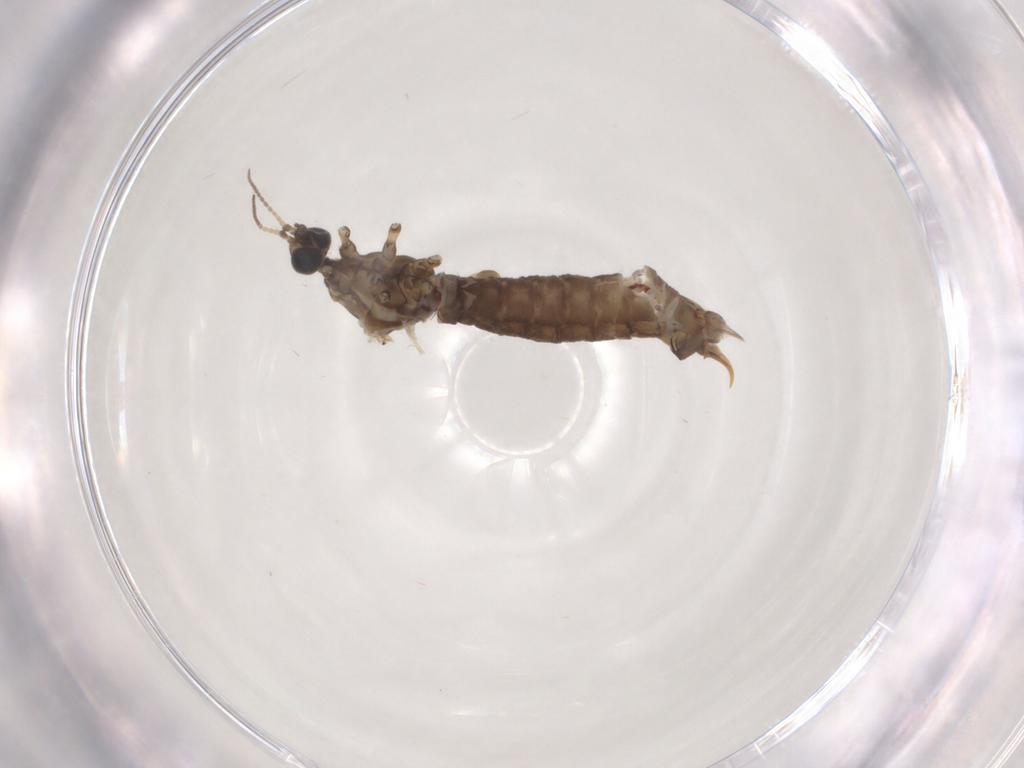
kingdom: Animalia
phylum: Arthropoda
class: Insecta
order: Diptera
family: Limoniidae
